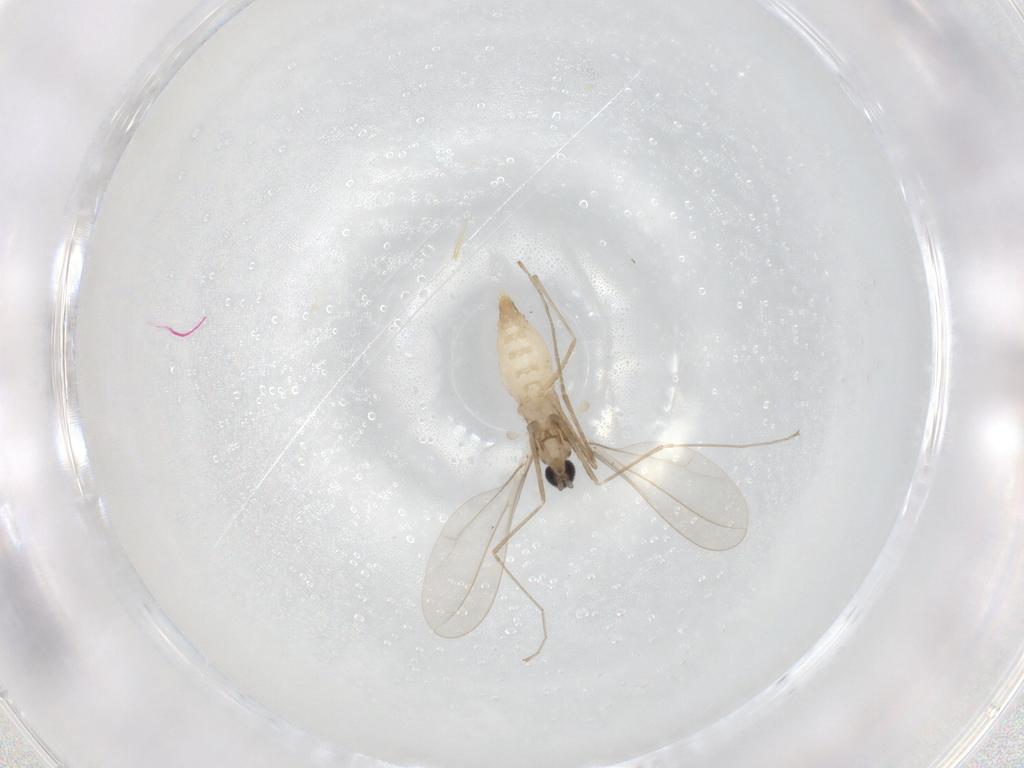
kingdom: Animalia
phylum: Arthropoda
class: Insecta
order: Diptera
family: Cecidomyiidae
